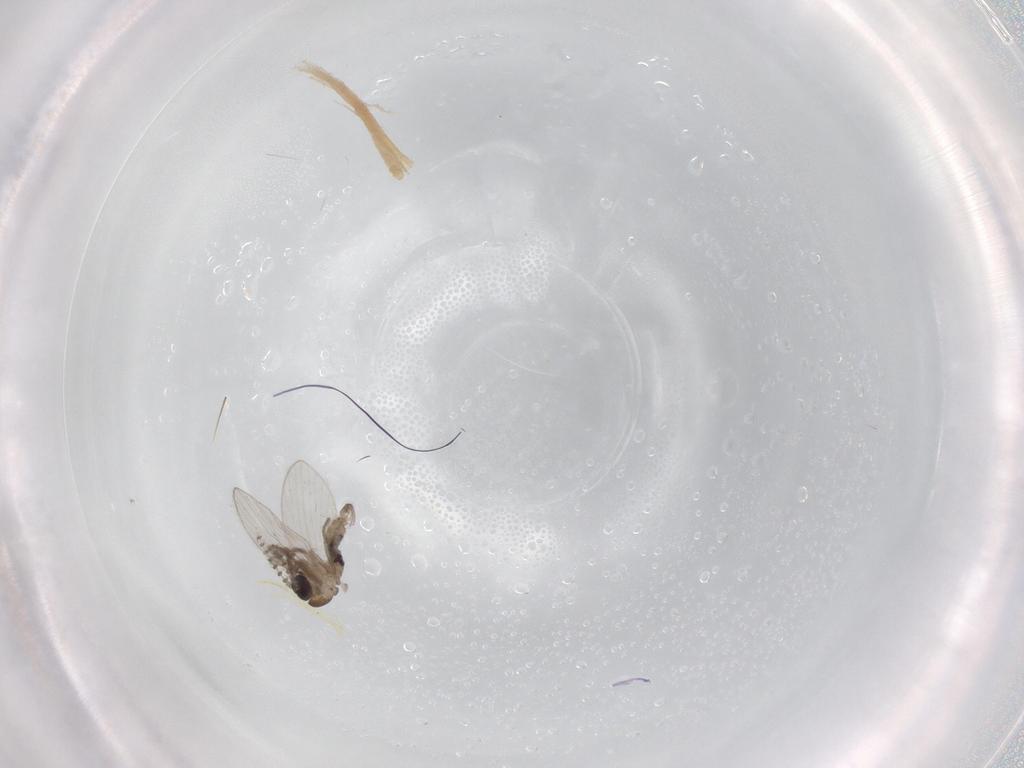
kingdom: Animalia
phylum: Arthropoda
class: Insecta
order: Diptera
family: Psychodidae
